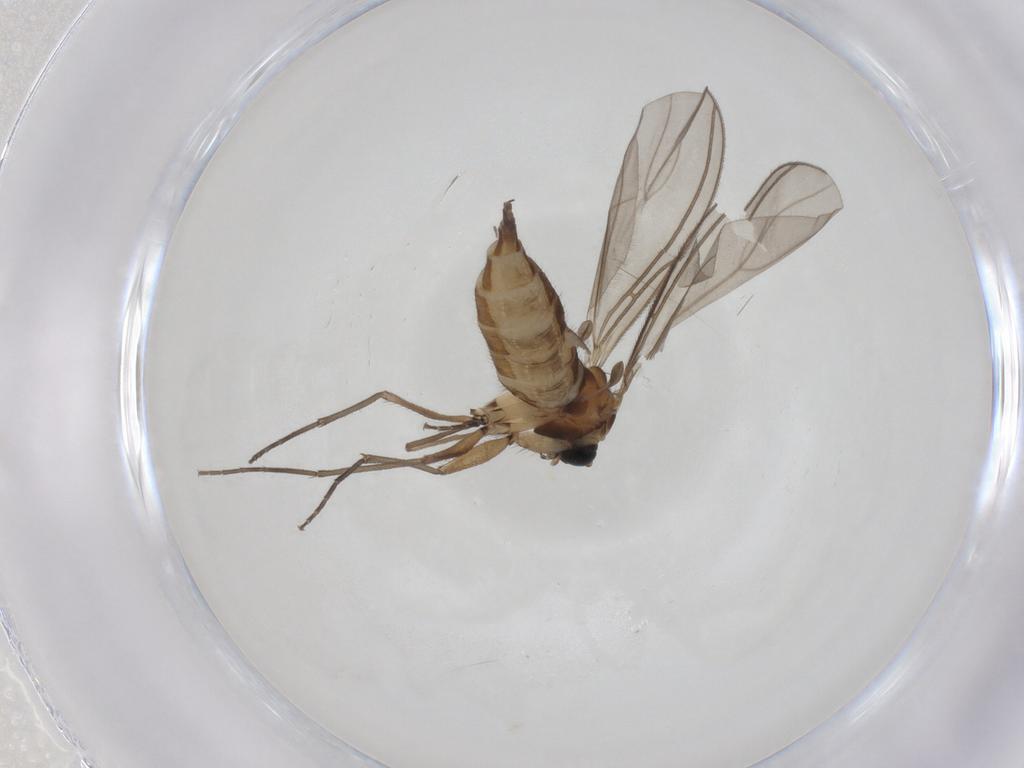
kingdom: Animalia
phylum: Arthropoda
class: Insecta
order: Diptera
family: Sciaridae
